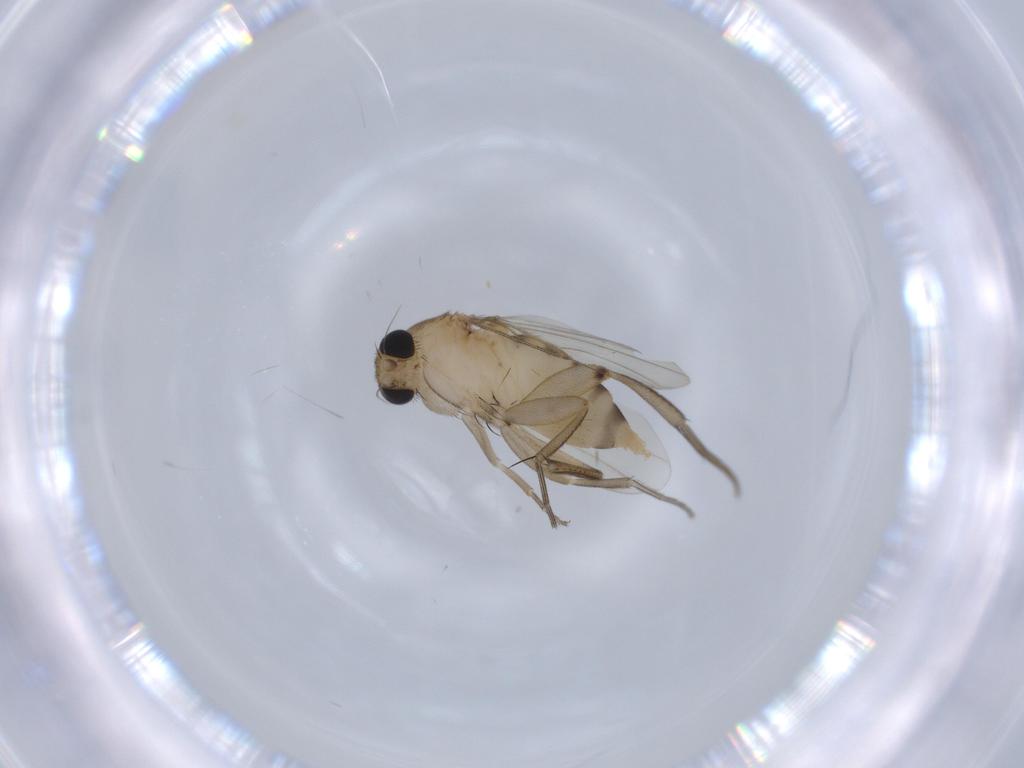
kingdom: Animalia
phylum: Arthropoda
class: Insecta
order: Diptera
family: Phoridae
